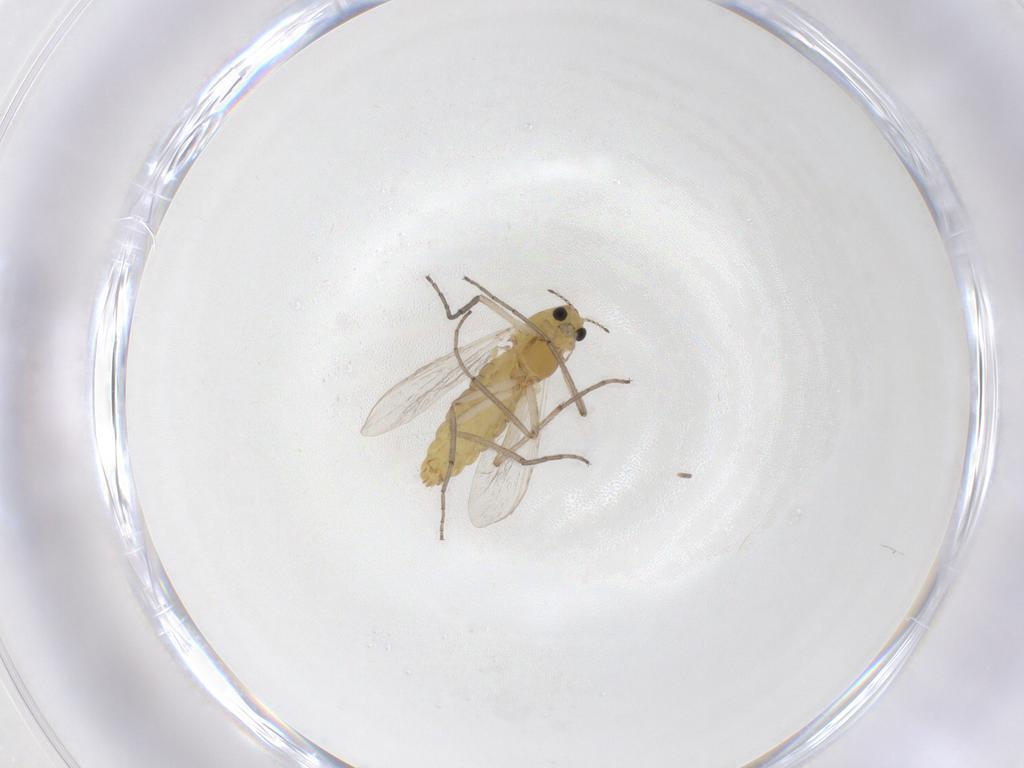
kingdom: Animalia
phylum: Arthropoda
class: Insecta
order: Diptera
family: Chironomidae
